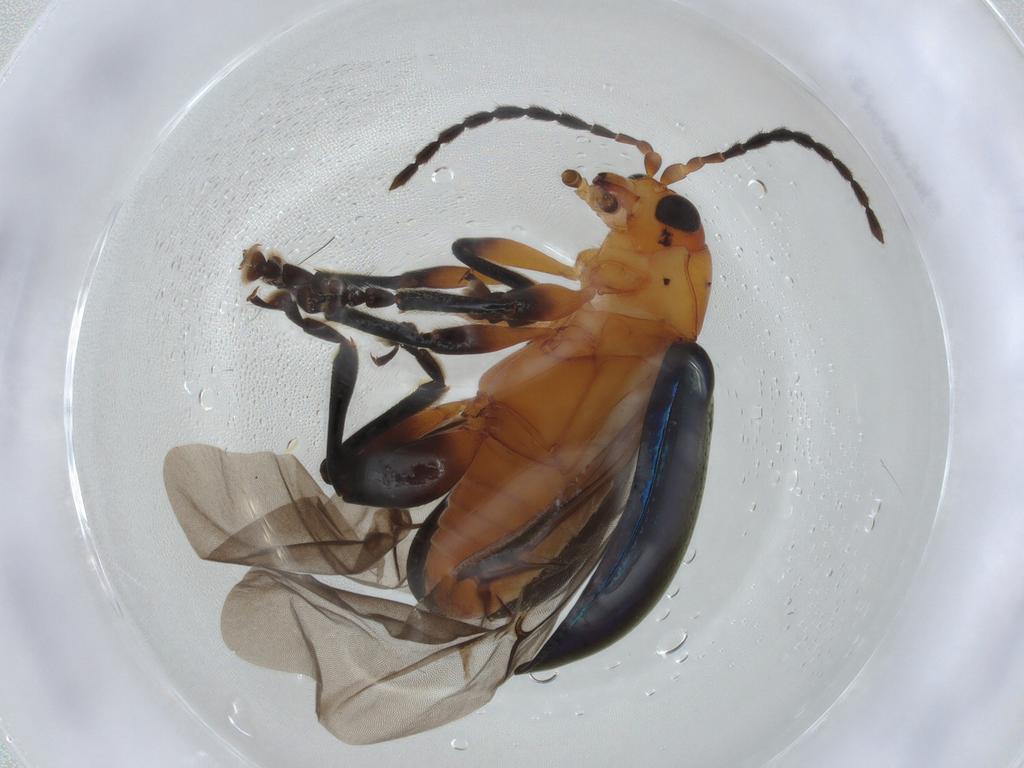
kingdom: Animalia
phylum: Arthropoda
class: Insecta
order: Coleoptera
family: Chrysomelidae
